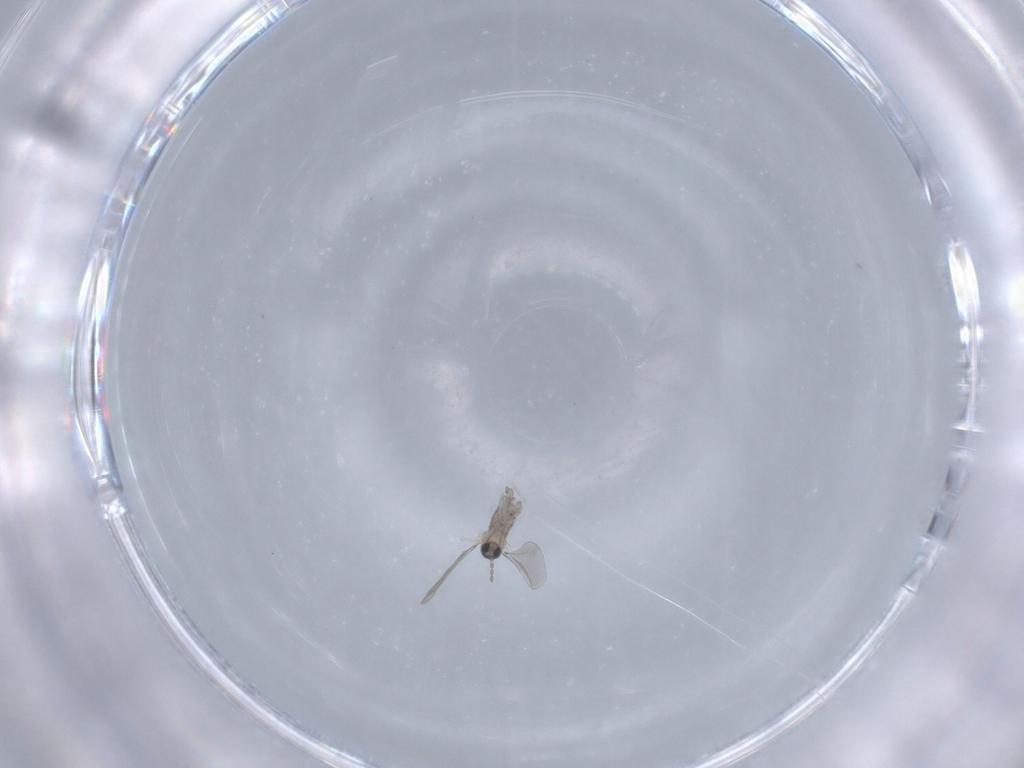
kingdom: Animalia
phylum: Arthropoda
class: Insecta
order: Diptera
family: Cecidomyiidae
